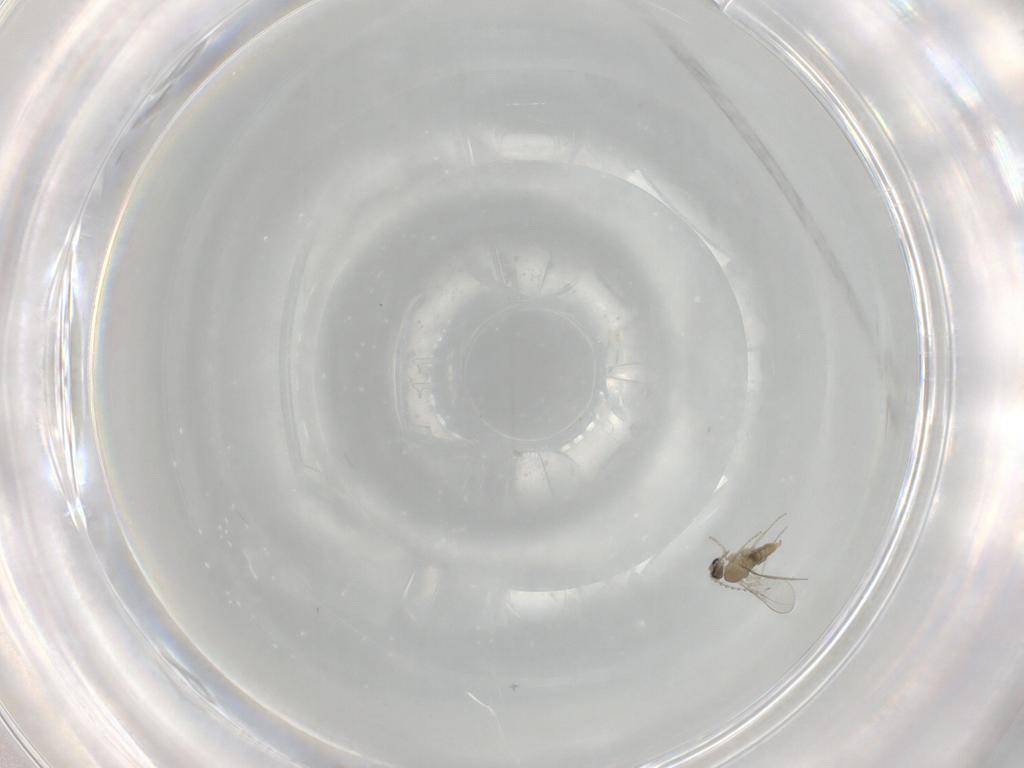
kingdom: Animalia
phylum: Arthropoda
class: Insecta
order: Diptera
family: Cecidomyiidae
